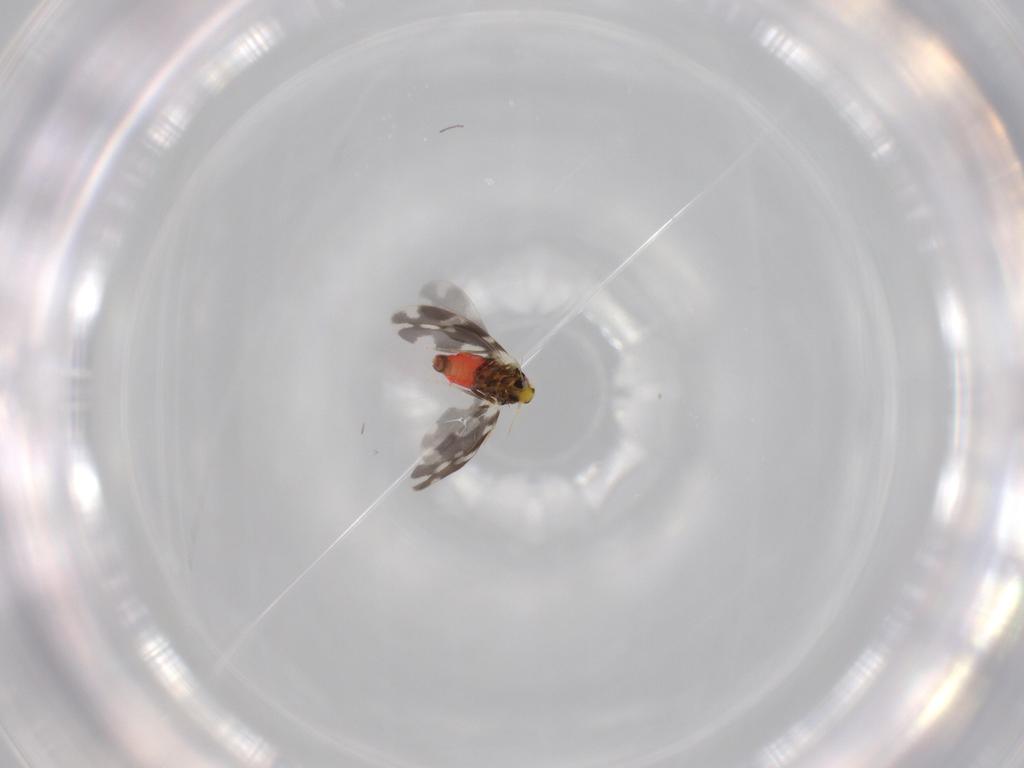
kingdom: Animalia
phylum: Arthropoda
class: Insecta
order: Hemiptera
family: Aleyrodidae
